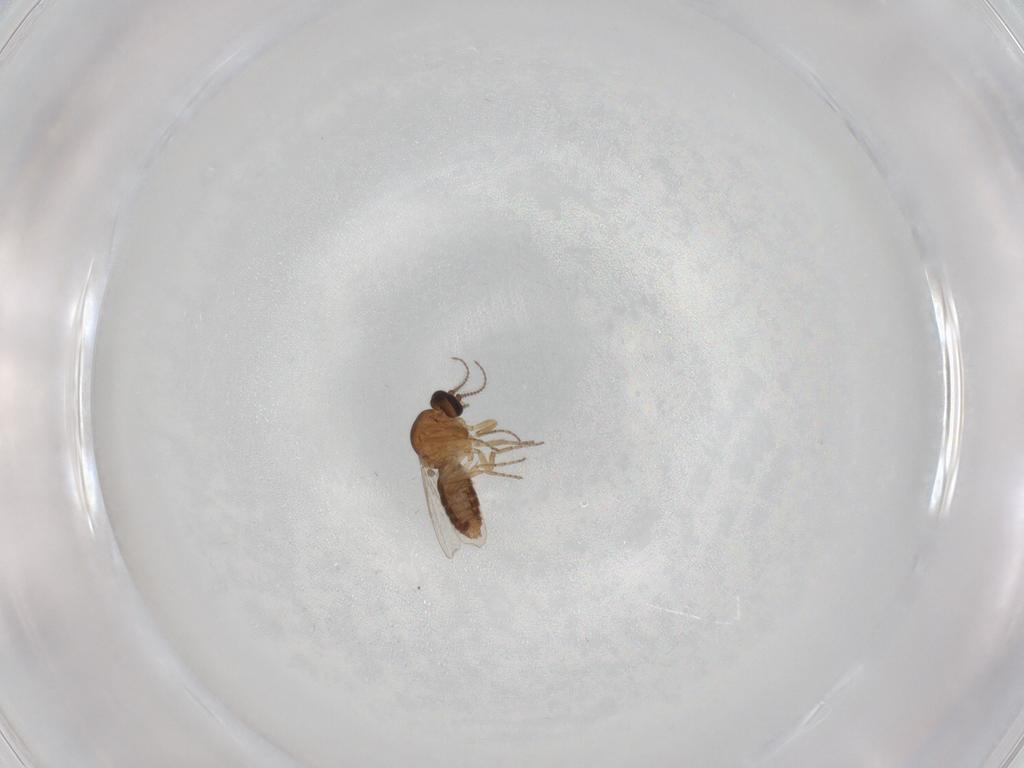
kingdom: Animalia
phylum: Arthropoda
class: Insecta
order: Diptera
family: Ceratopogonidae
